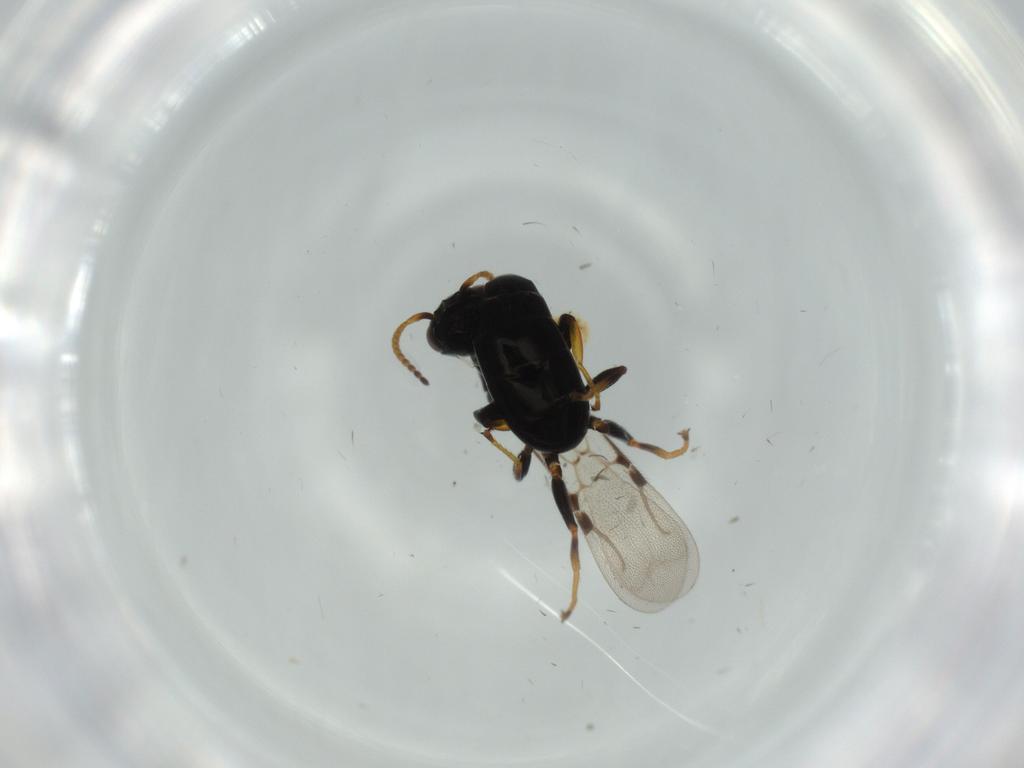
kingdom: Animalia
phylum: Arthropoda
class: Insecta
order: Hymenoptera
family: Bethylidae
